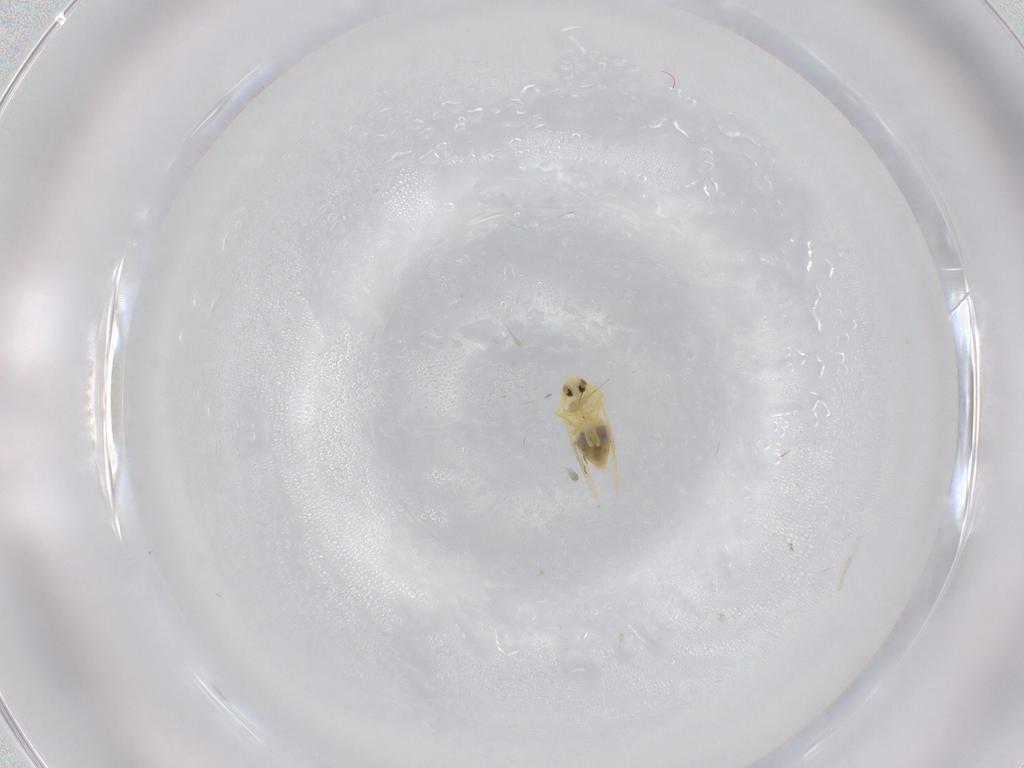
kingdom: Animalia
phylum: Arthropoda
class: Insecta
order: Hemiptera
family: Aleyrodidae
